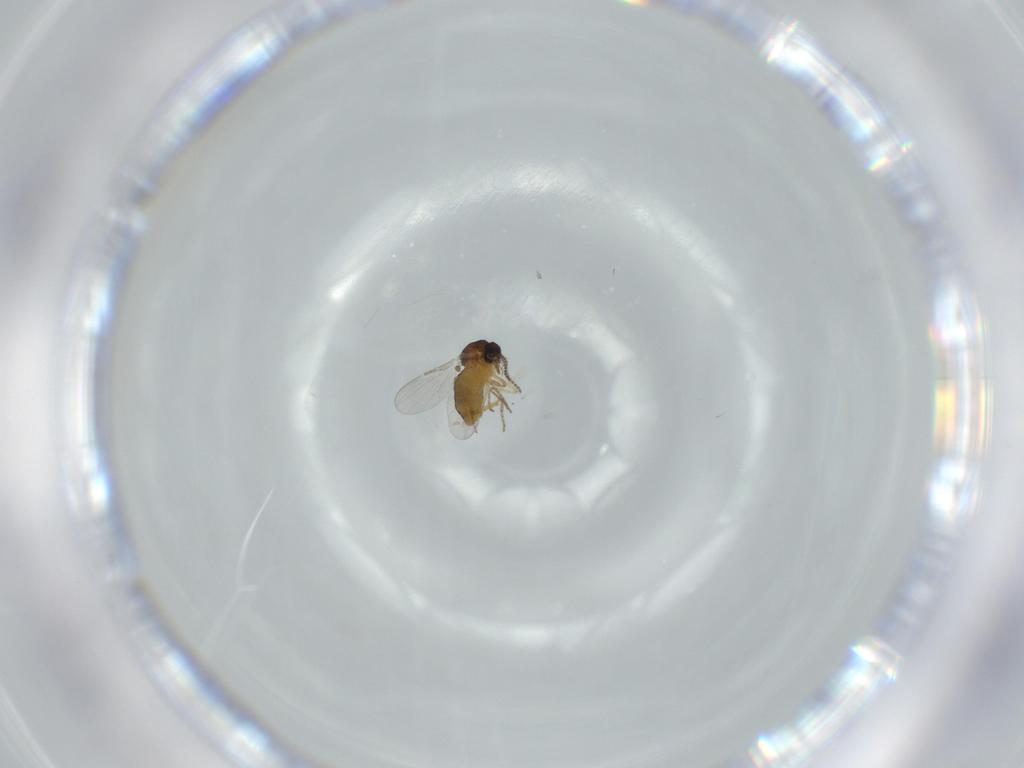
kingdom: Animalia
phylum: Arthropoda
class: Insecta
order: Diptera
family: Ceratopogonidae
